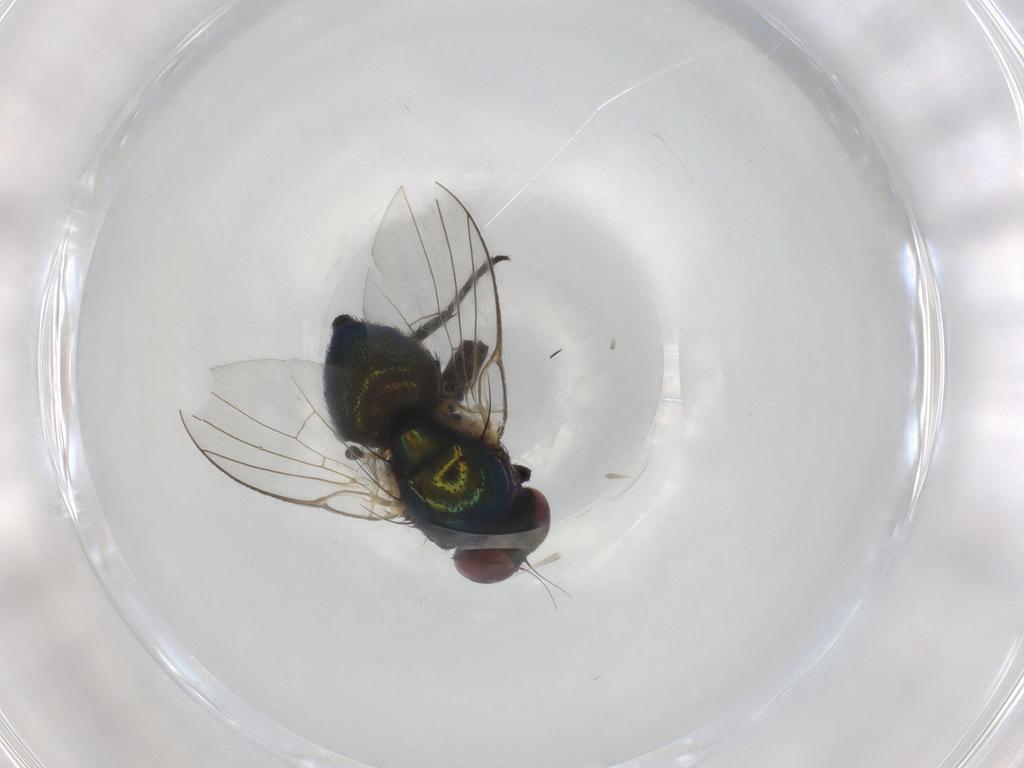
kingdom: Animalia
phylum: Arthropoda
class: Insecta
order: Diptera
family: Agromyzidae
